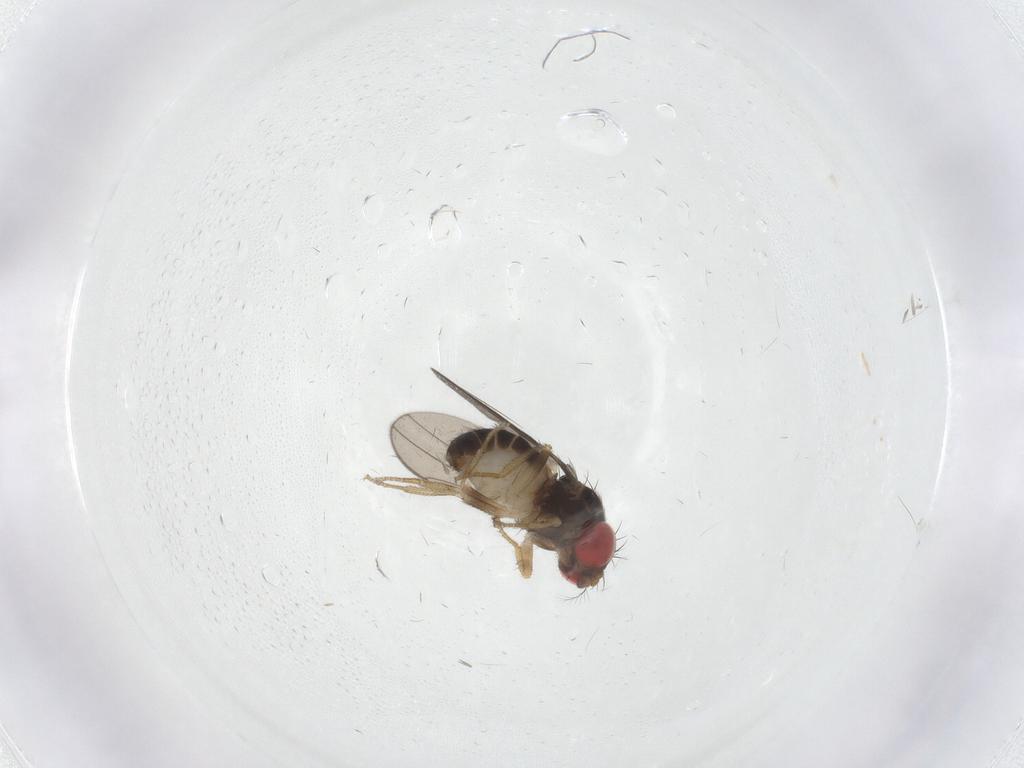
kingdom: Animalia
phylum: Arthropoda
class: Insecta
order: Diptera
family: Drosophilidae
